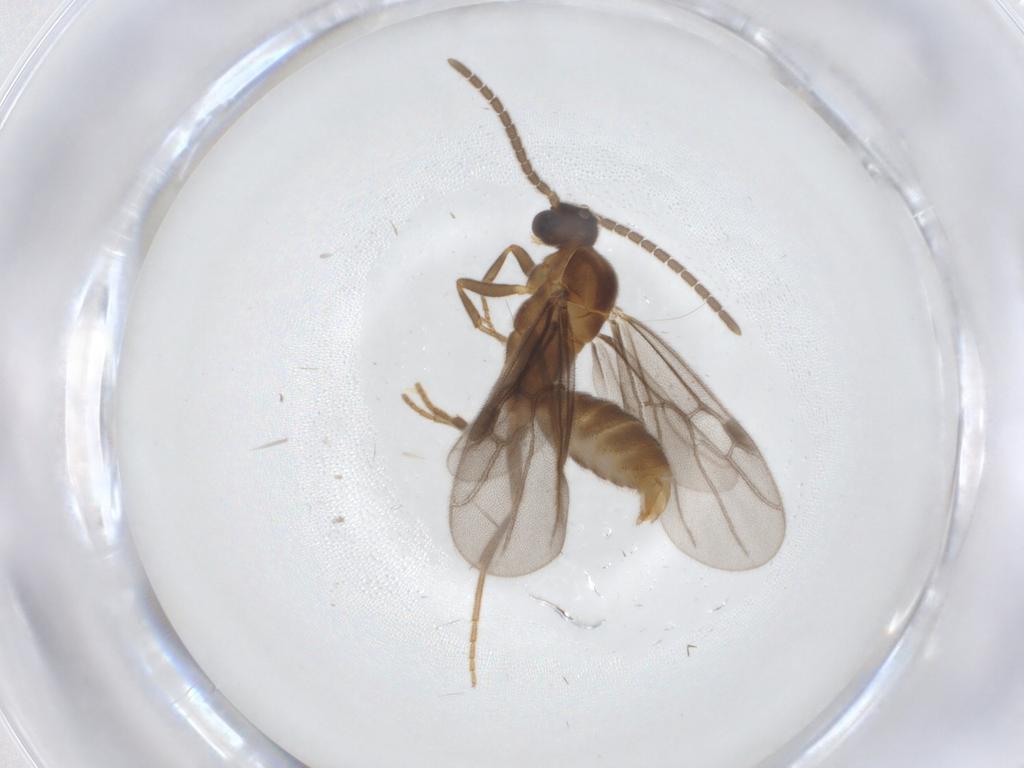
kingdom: Animalia
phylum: Arthropoda
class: Insecta
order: Hymenoptera
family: Formicidae
